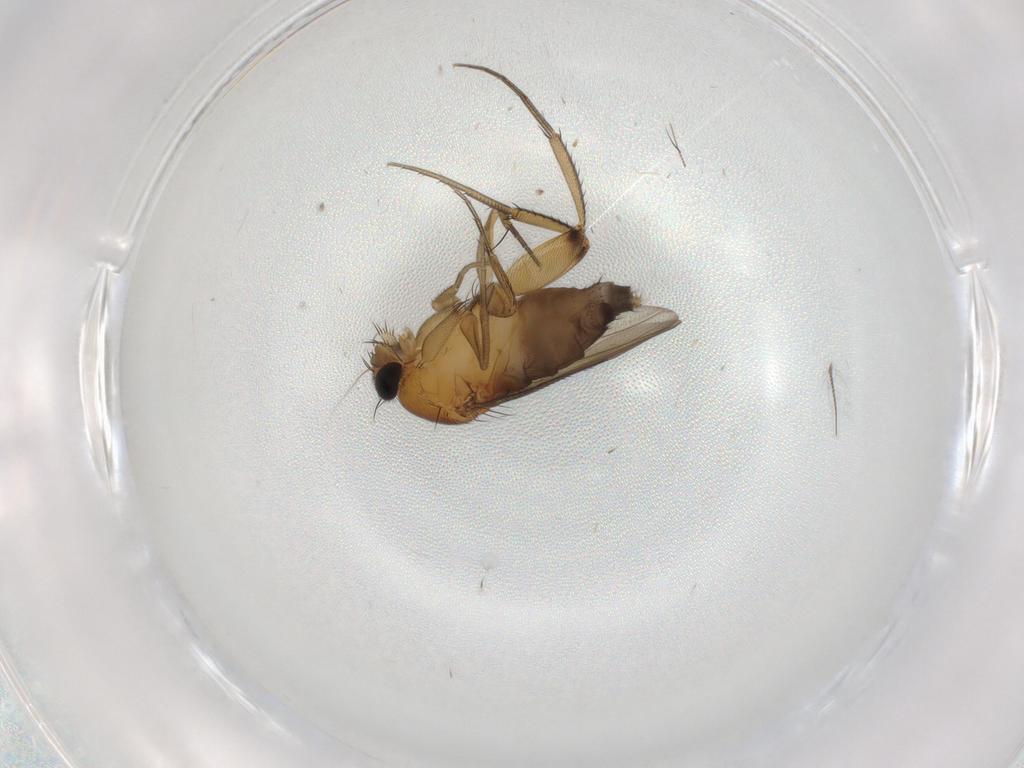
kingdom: Animalia
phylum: Arthropoda
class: Insecta
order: Diptera
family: Phoridae
